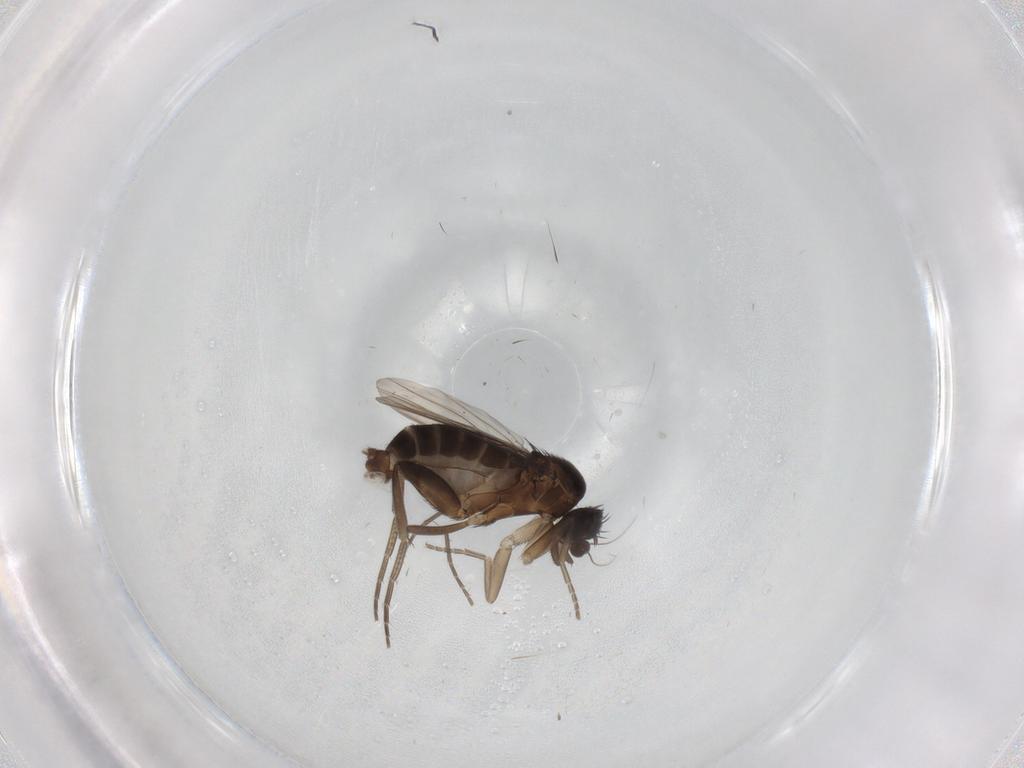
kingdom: Animalia
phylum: Arthropoda
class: Insecta
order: Diptera
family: Phoridae
